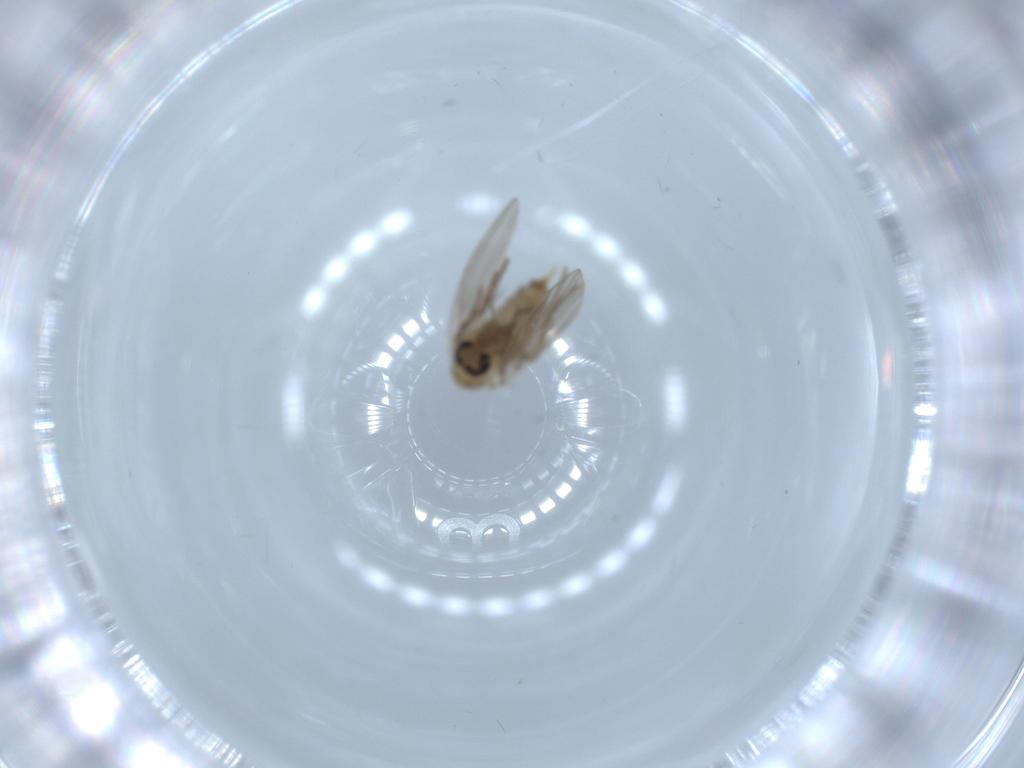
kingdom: Animalia
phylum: Arthropoda
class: Insecta
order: Diptera
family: Psychodidae
